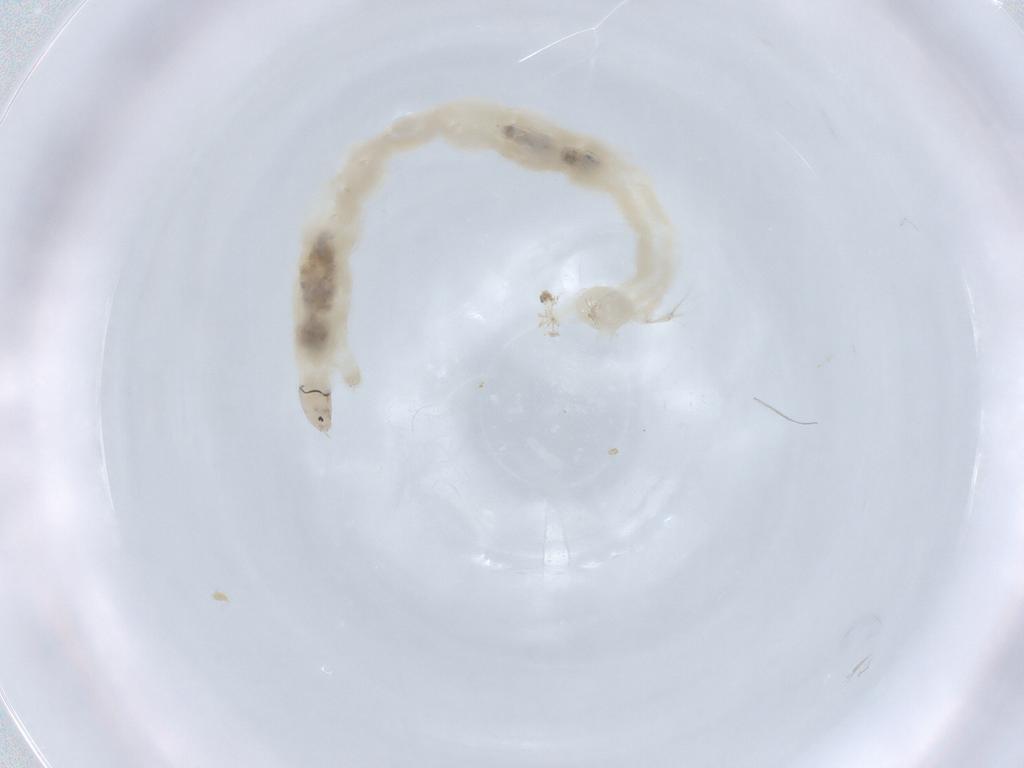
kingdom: Animalia
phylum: Arthropoda
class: Insecta
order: Diptera
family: Chironomidae
